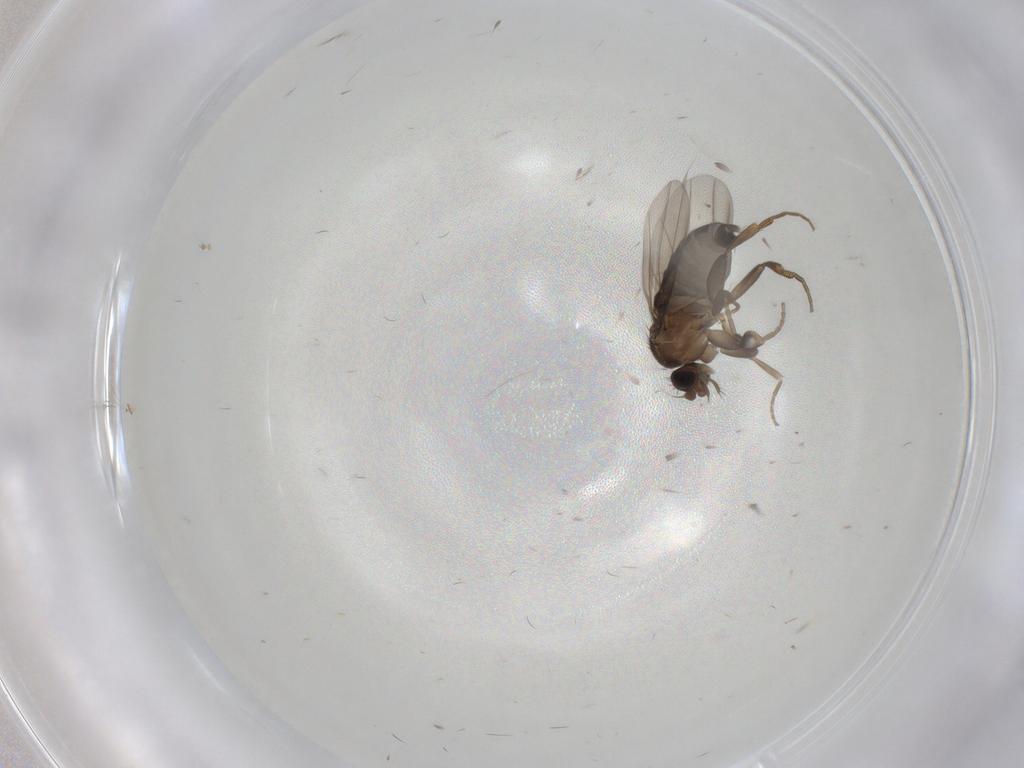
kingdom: Animalia
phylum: Arthropoda
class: Insecta
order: Diptera
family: Phoridae
